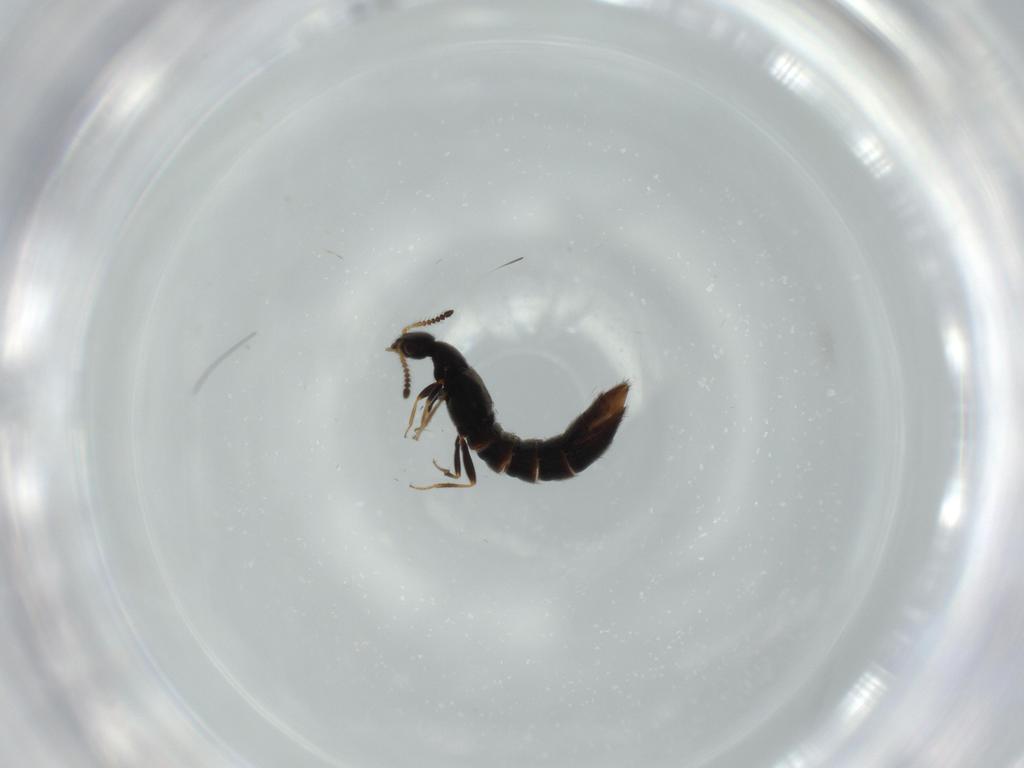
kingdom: Animalia
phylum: Arthropoda
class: Insecta
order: Coleoptera
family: Staphylinidae
